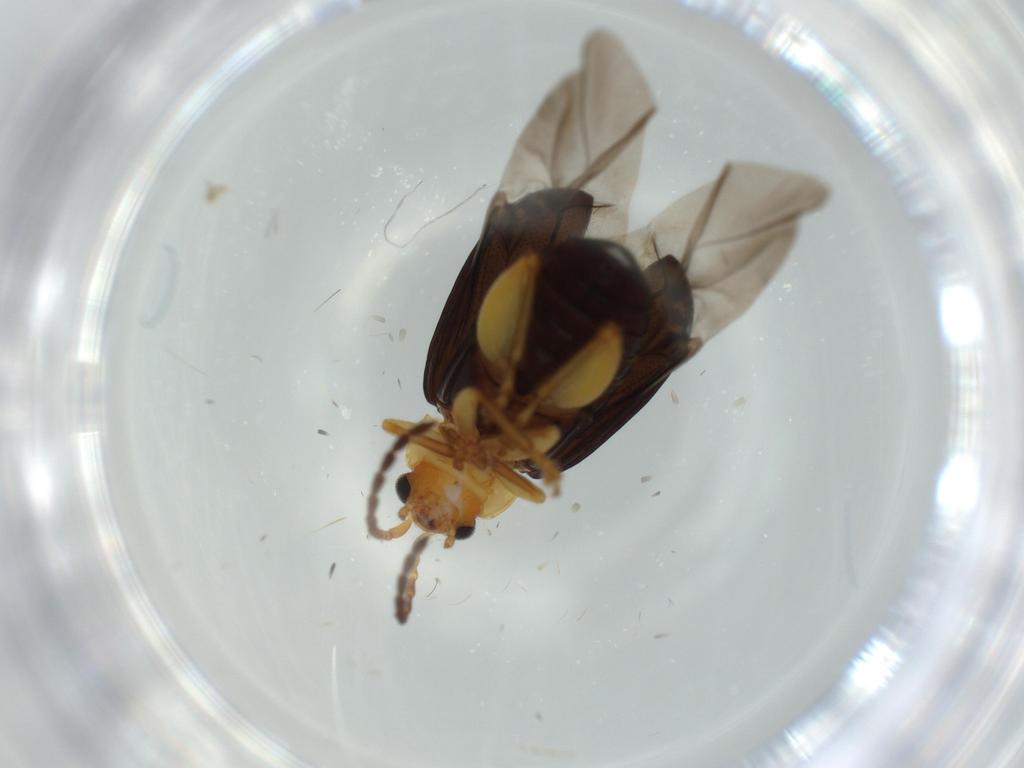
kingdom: Animalia
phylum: Arthropoda
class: Insecta
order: Coleoptera
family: Chrysomelidae
